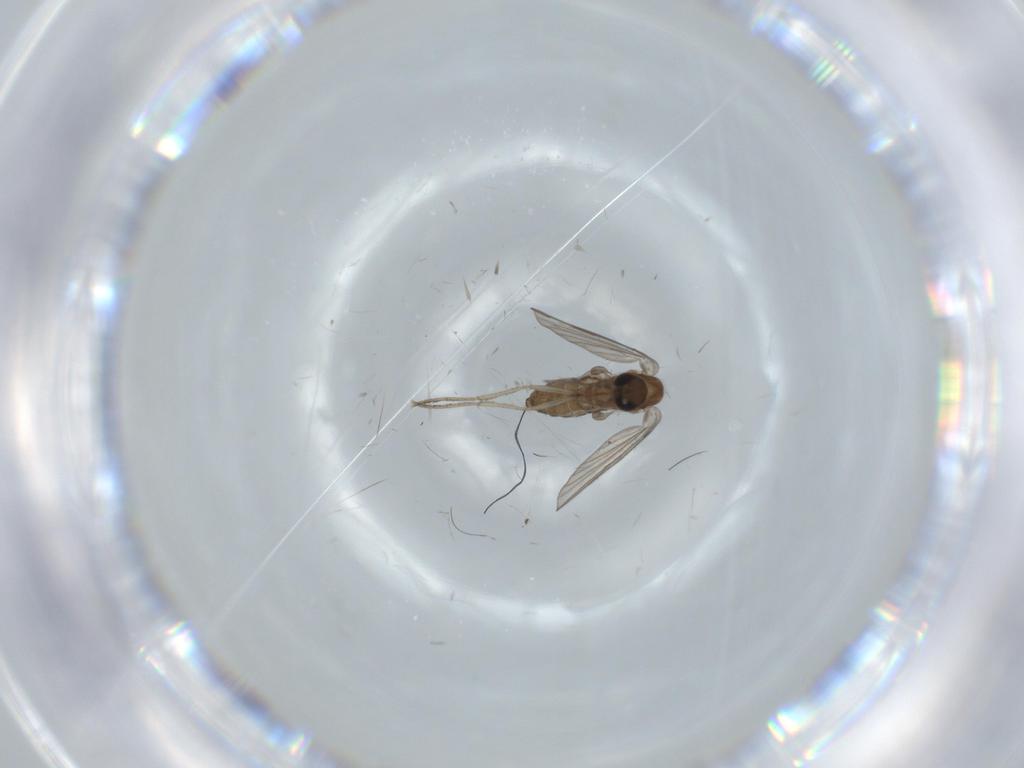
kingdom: Animalia
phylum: Arthropoda
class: Insecta
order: Diptera
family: Psychodidae
